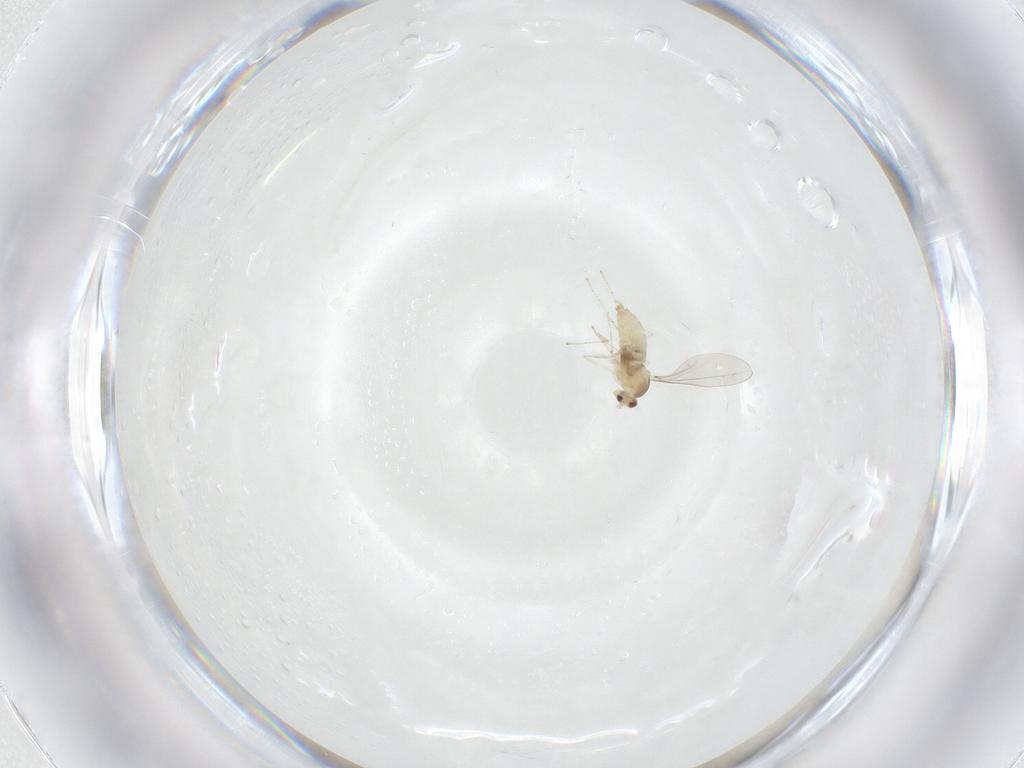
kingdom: Animalia
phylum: Arthropoda
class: Insecta
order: Diptera
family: Cecidomyiidae
